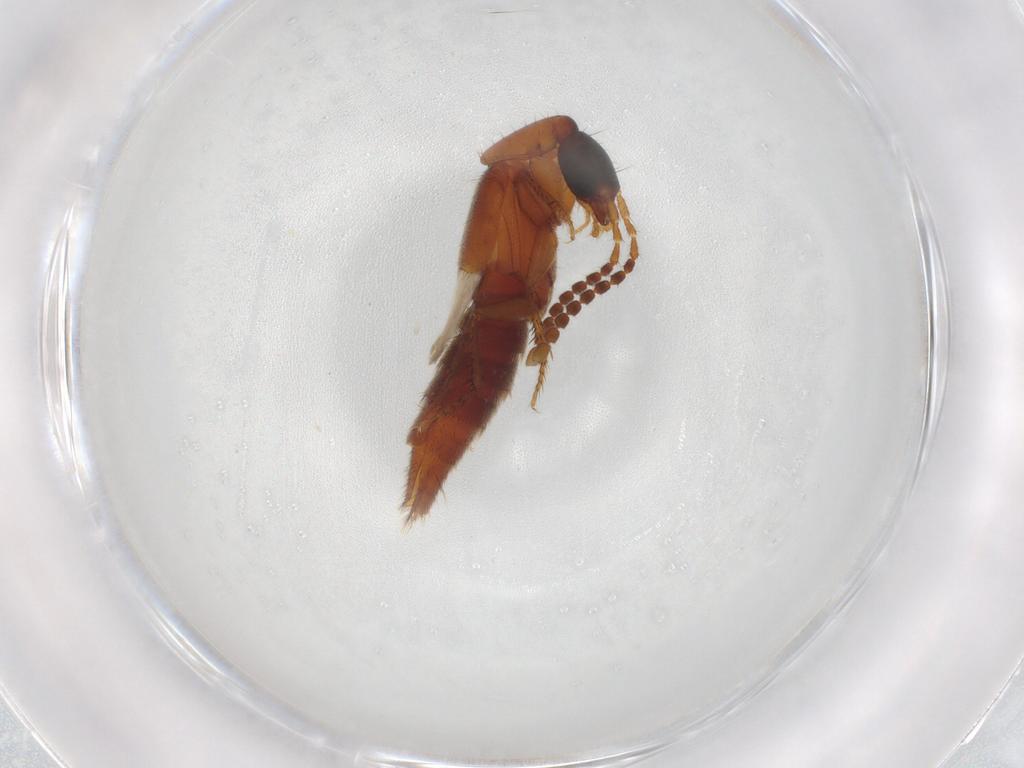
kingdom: Animalia
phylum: Arthropoda
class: Insecta
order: Coleoptera
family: Staphylinidae
